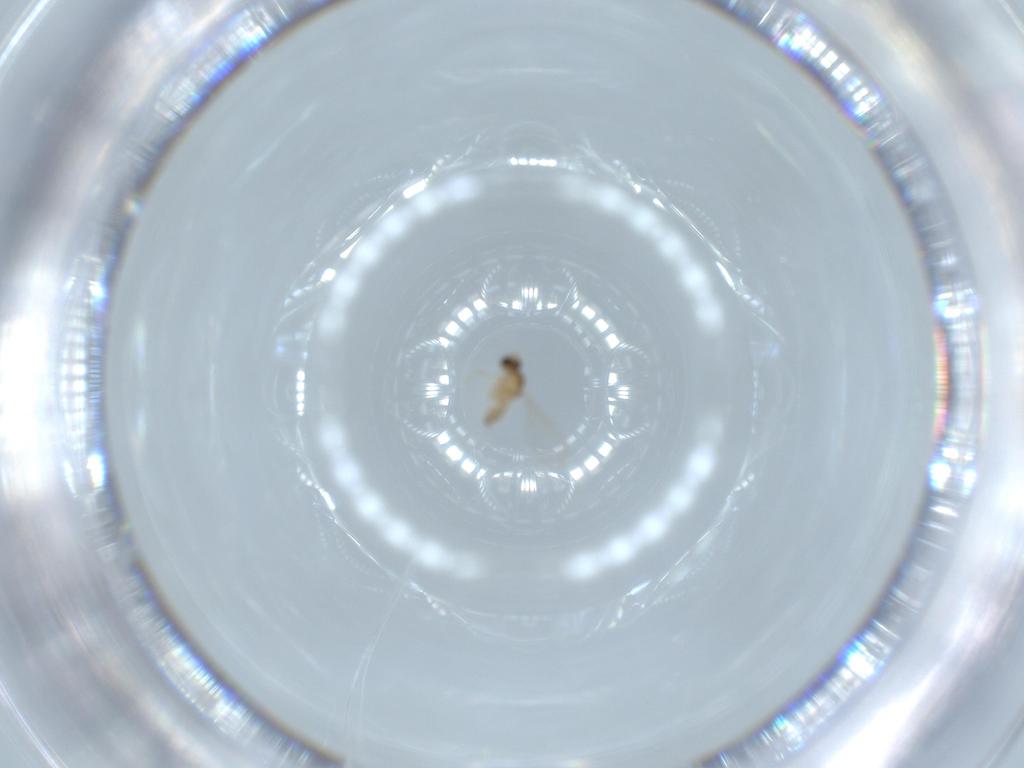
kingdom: Animalia
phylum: Arthropoda
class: Insecta
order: Diptera
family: Cecidomyiidae
